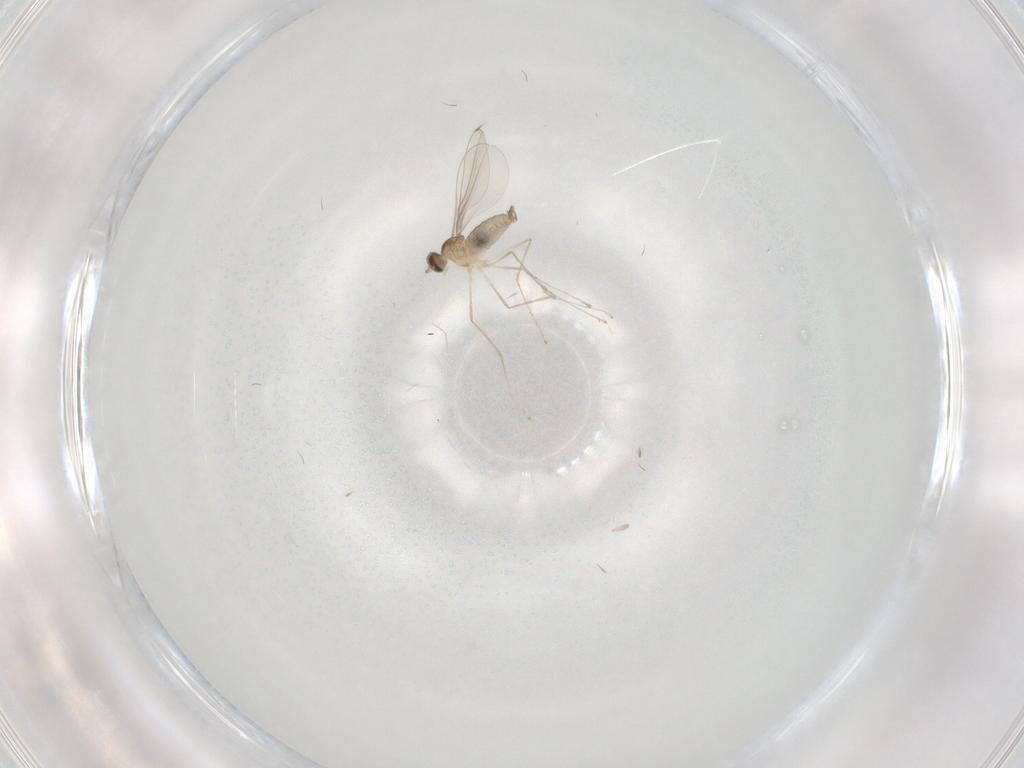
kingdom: Animalia
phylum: Arthropoda
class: Insecta
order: Diptera
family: Cecidomyiidae
